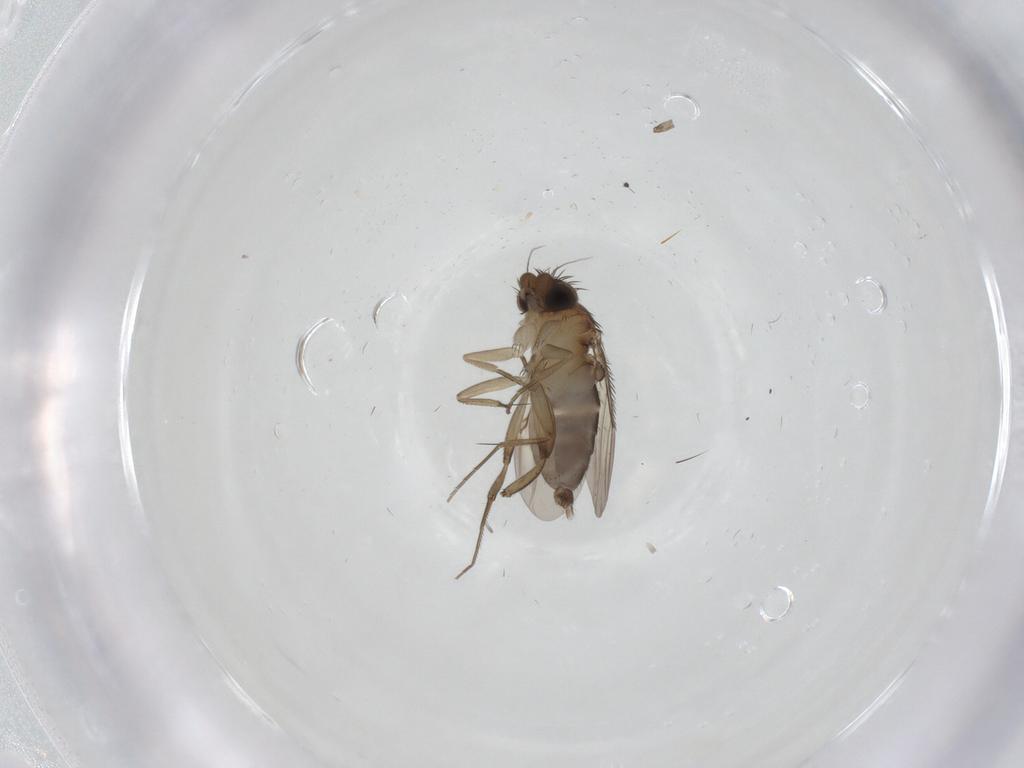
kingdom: Animalia
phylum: Arthropoda
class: Insecta
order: Diptera
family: Phoridae
